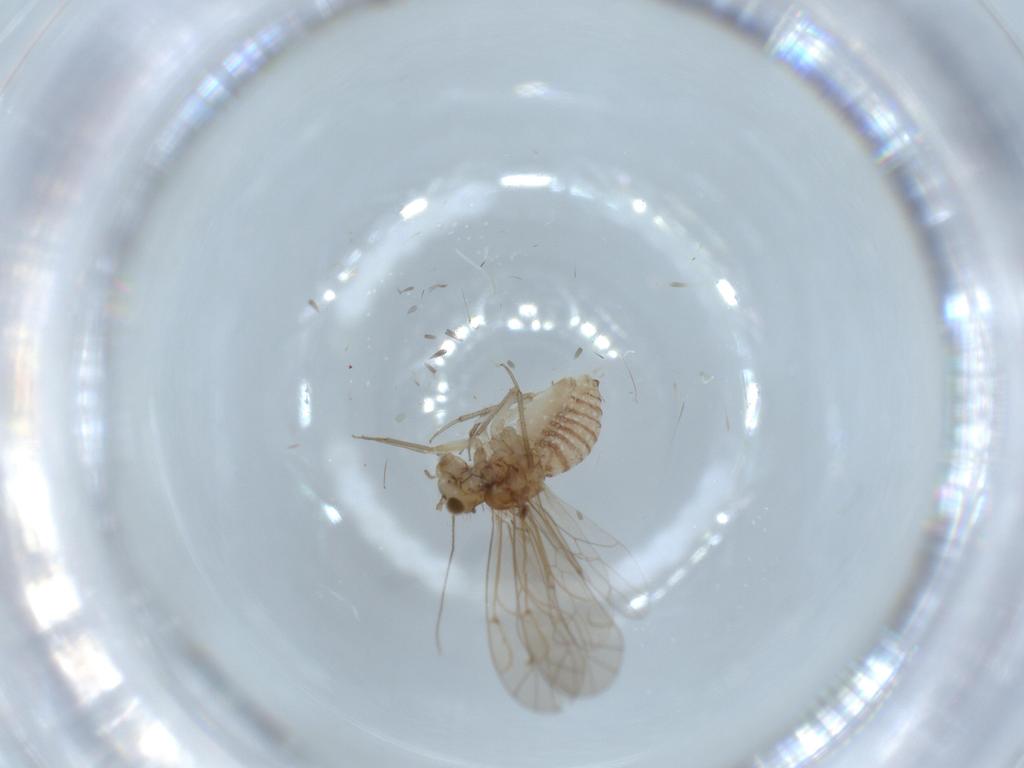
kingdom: Animalia
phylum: Arthropoda
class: Insecta
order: Psocodea
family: Lachesillidae
